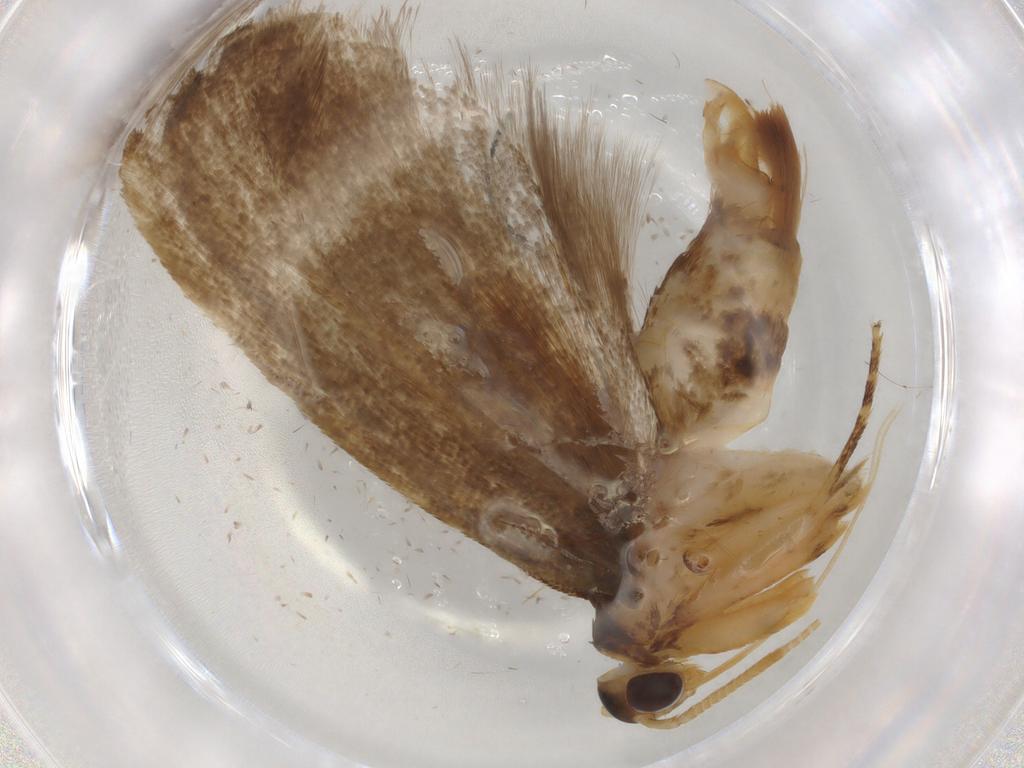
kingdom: Animalia
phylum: Arthropoda
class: Insecta
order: Lepidoptera
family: Lecithoceridae
